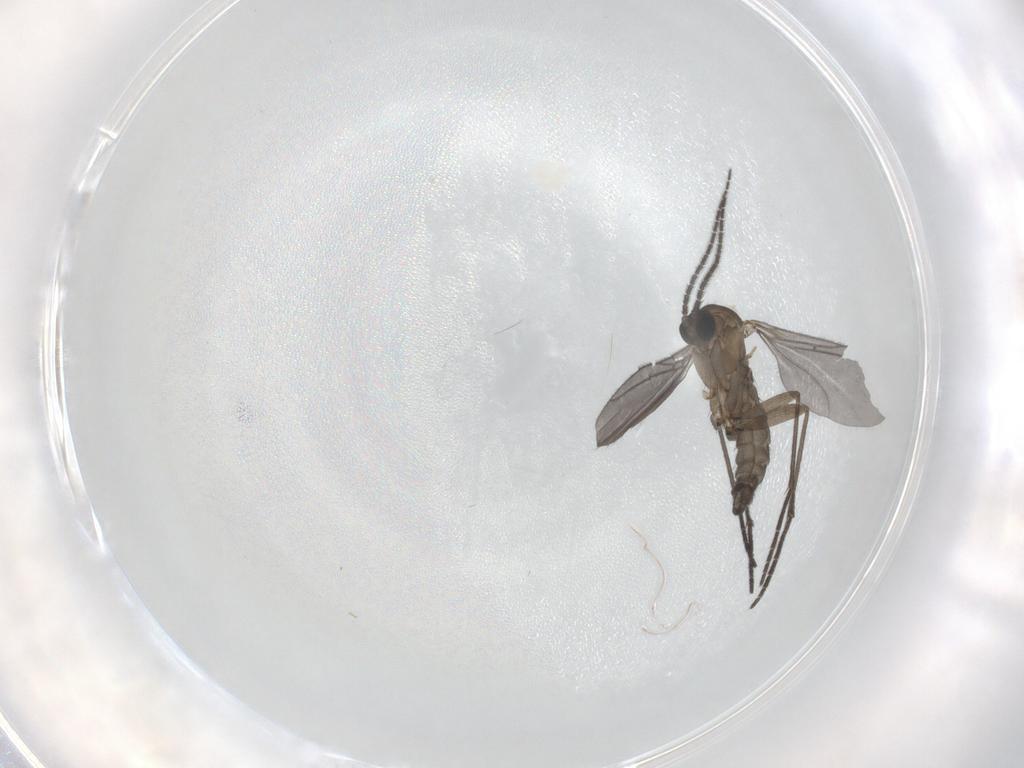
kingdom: Animalia
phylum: Arthropoda
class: Insecta
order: Diptera
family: Sciaridae
